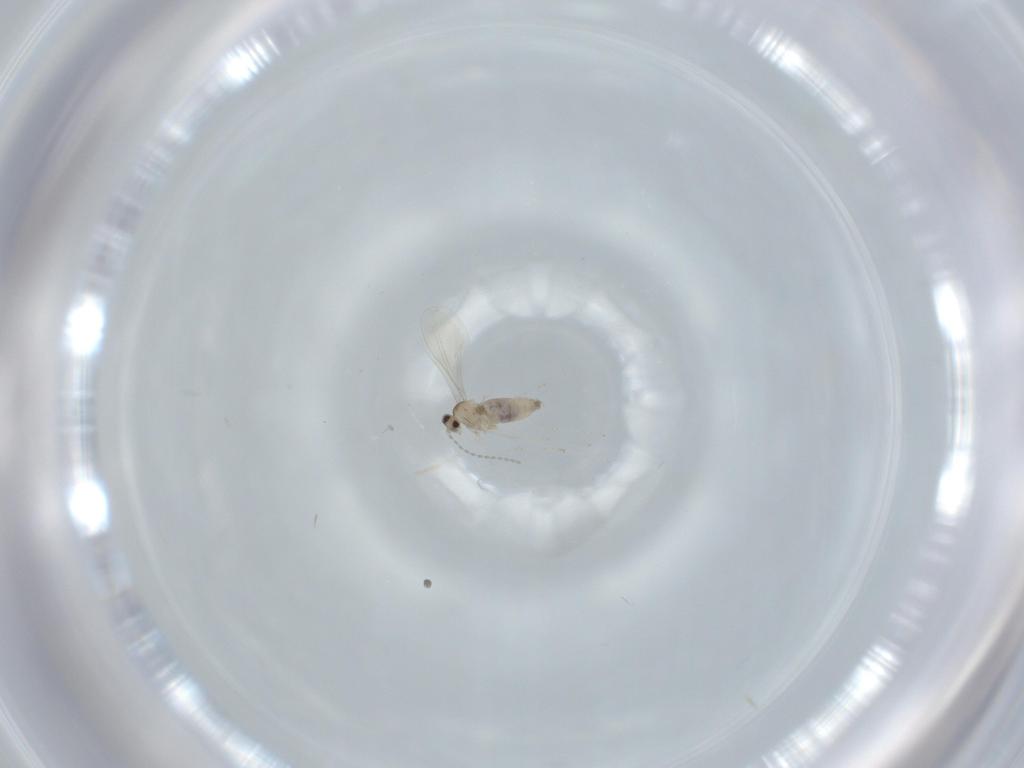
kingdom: Animalia
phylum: Arthropoda
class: Insecta
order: Diptera
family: Cecidomyiidae
